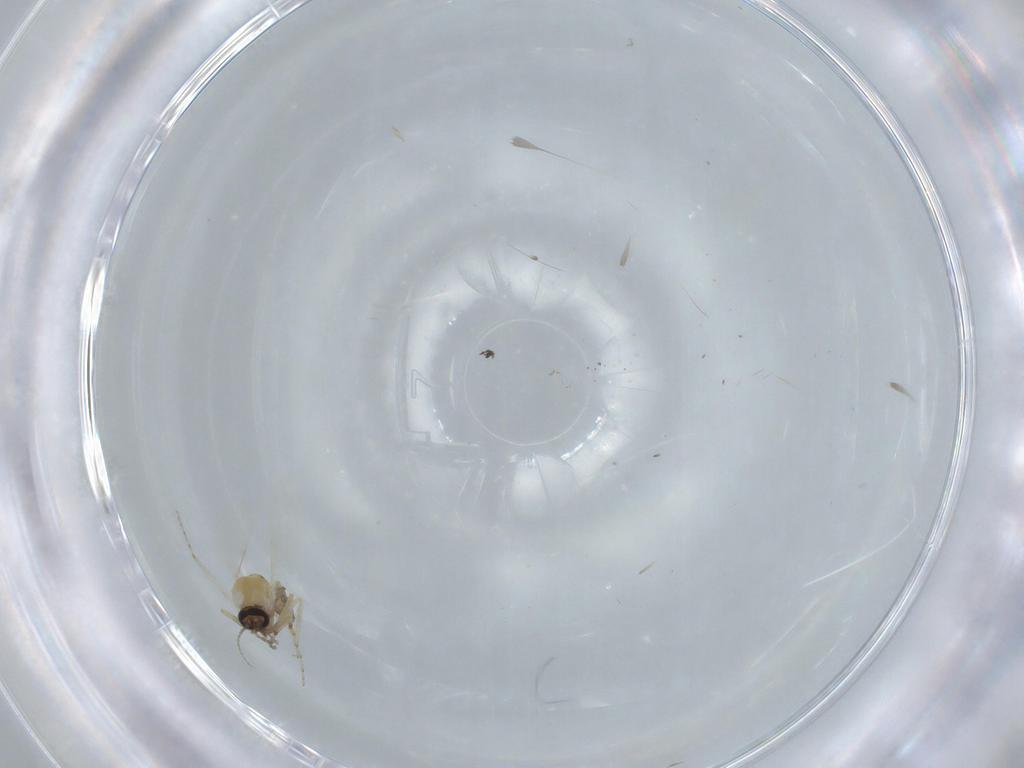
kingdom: Animalia
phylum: Arthropoda
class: Insecta
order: Diptera
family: Cecidomyiidae
